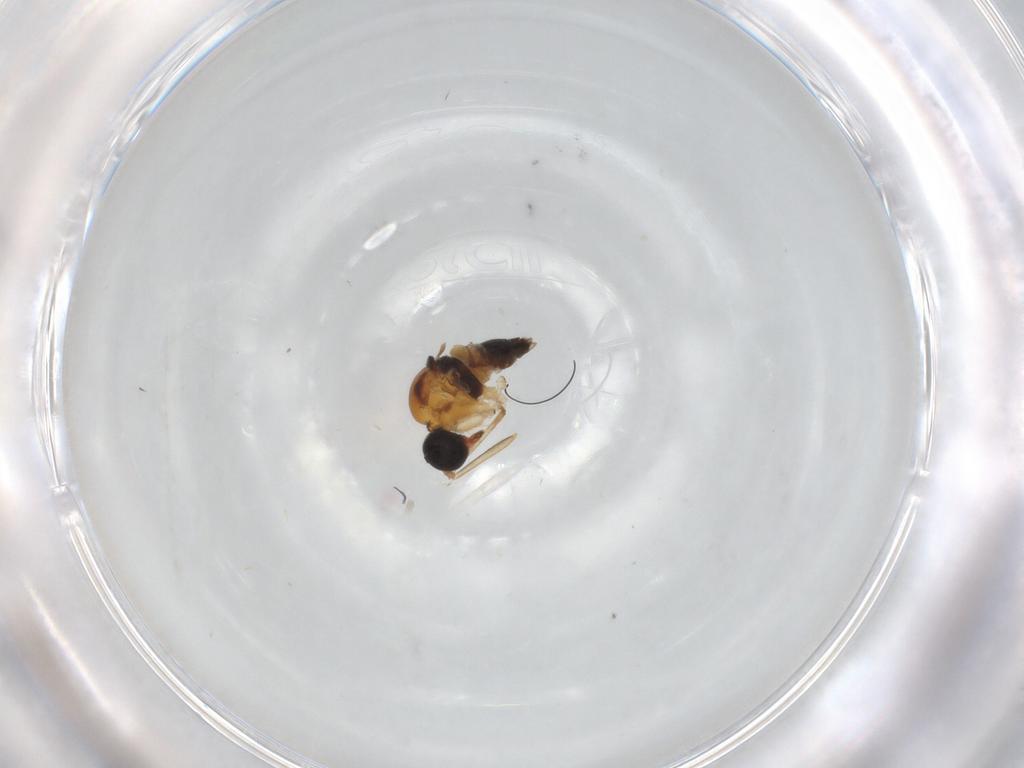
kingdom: Animalia
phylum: Arthropoda
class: Insecta
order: Diptera
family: Hybotidae
